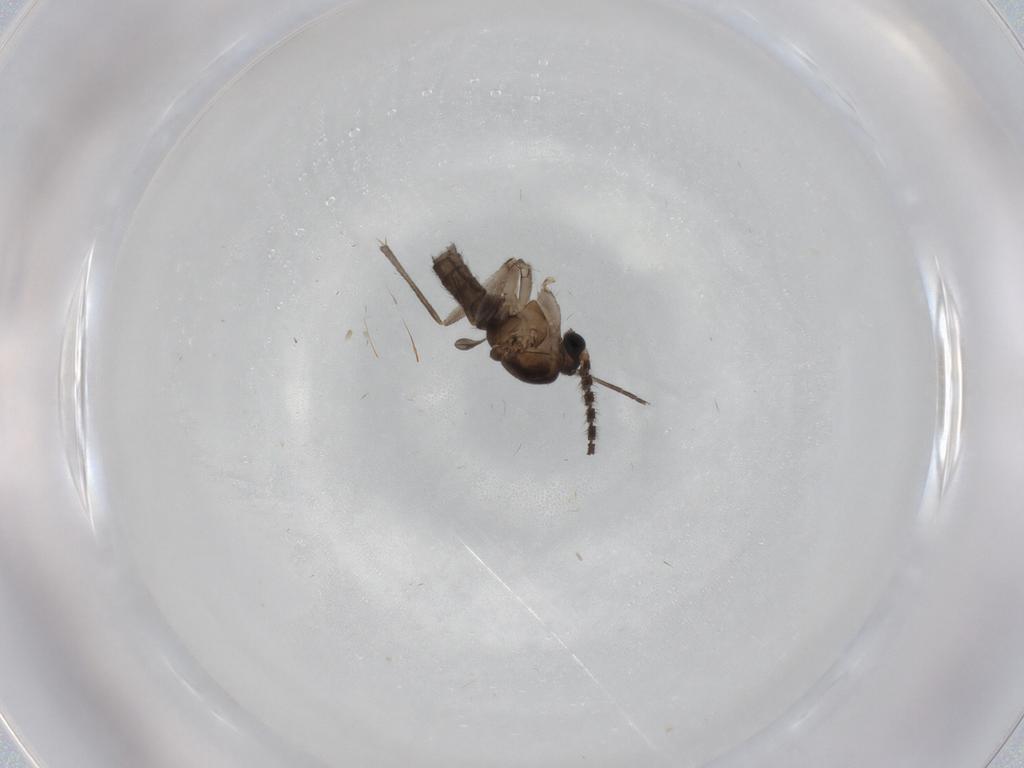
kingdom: Animalia
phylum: Arthropoda
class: Insecta
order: Diptera
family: Sciaridae
